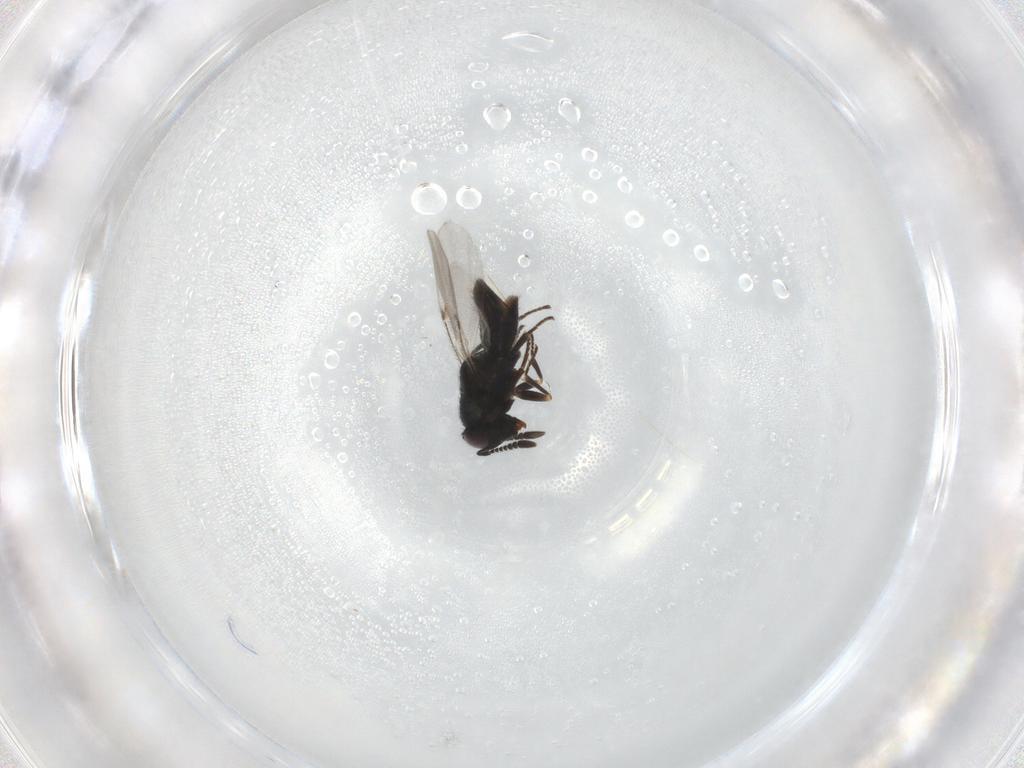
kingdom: Animalia
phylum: Arthropoda
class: Insecta
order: Hymenoptera
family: Encyrtidae
